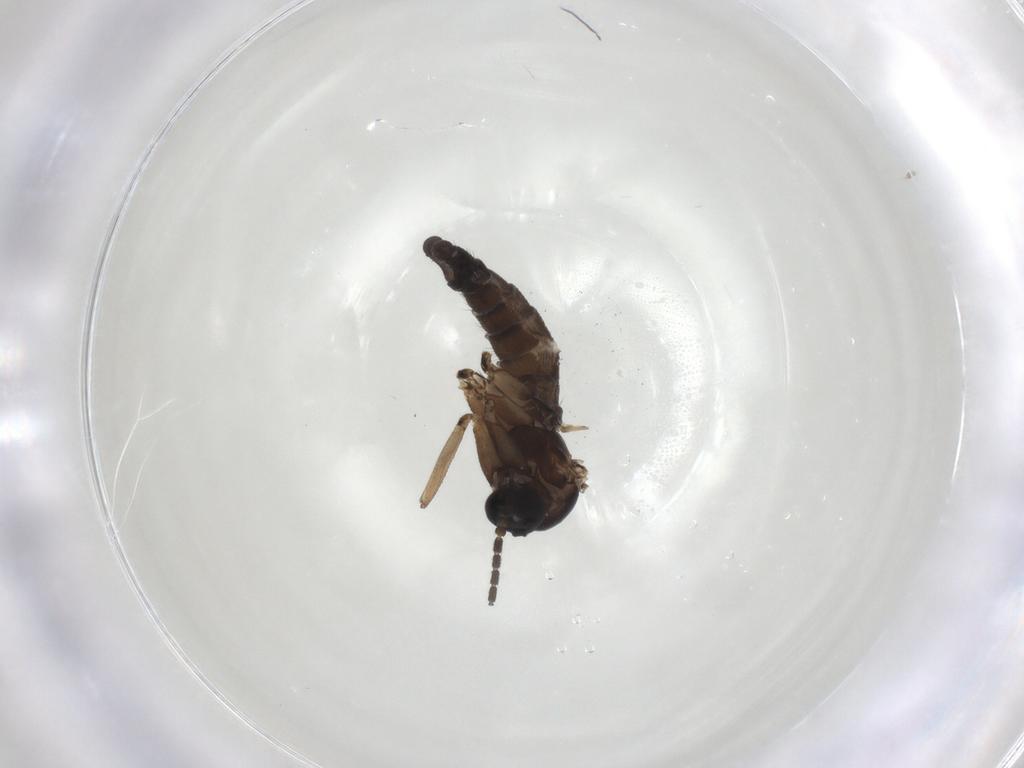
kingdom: Animalia
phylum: Arthropoda
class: Insecta
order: Diptera
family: Sciaridae
